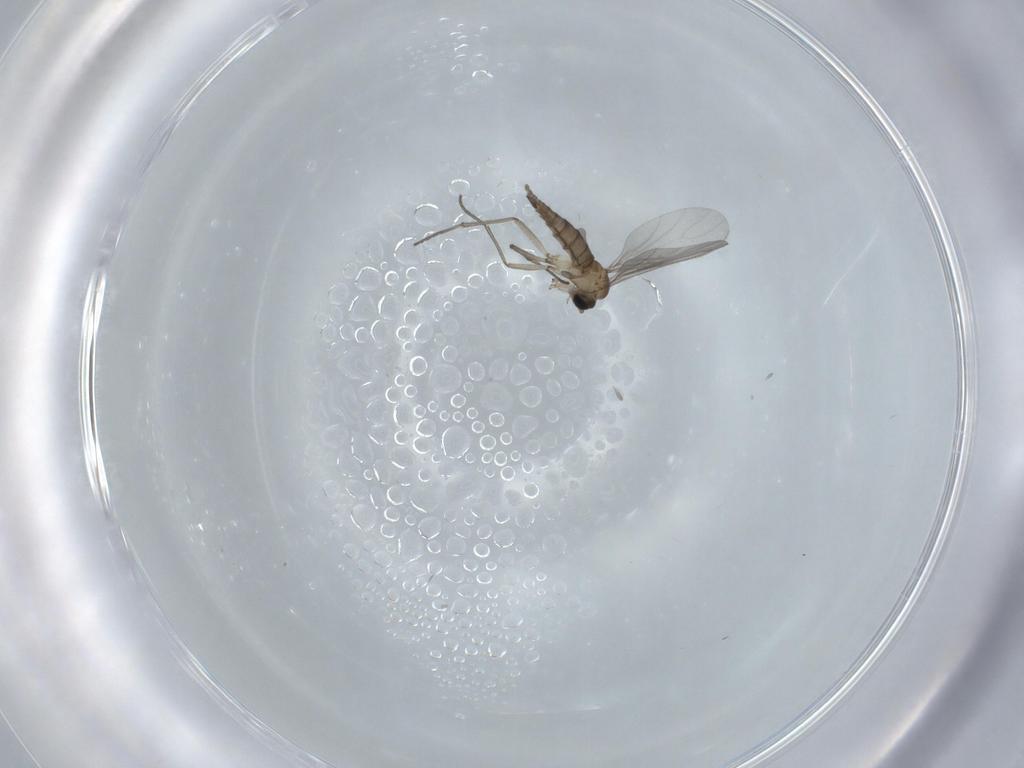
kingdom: Animalia
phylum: Arthropoda
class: Insecta
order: Diptera
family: Sciaridae
